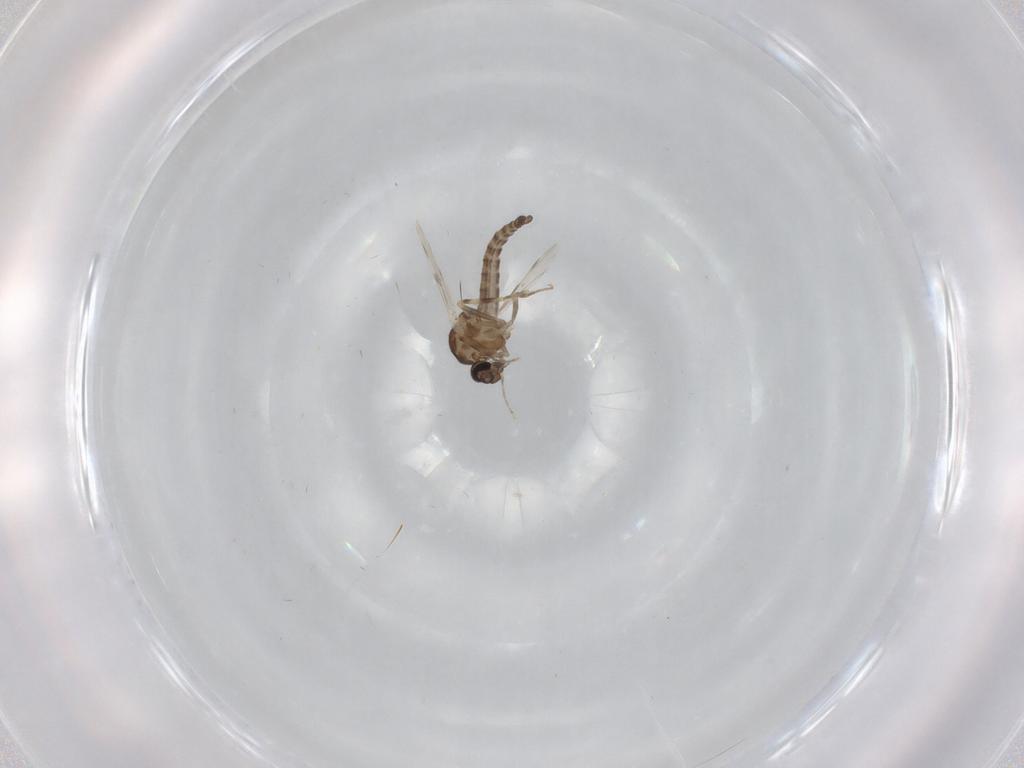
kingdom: Animalia
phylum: Arthropoda
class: Insecta
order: Diptera
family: Ceratopogonidae
